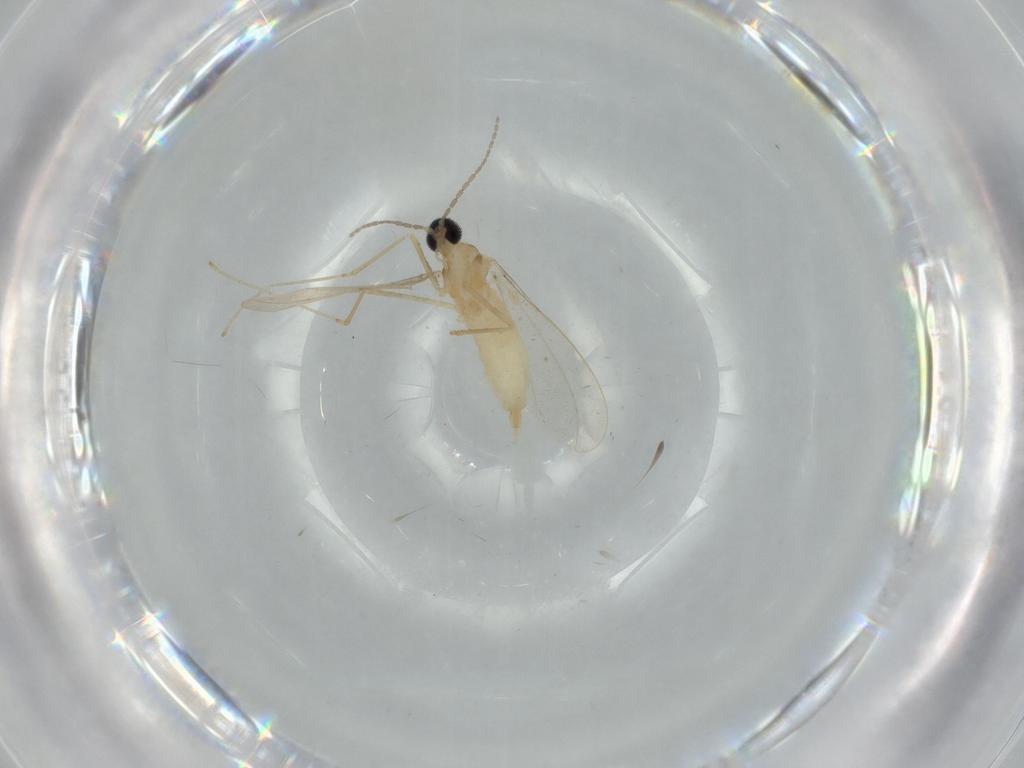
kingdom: Animalia
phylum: Arthropoda
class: Insecta
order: Diptera
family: Cecidomyiidae
